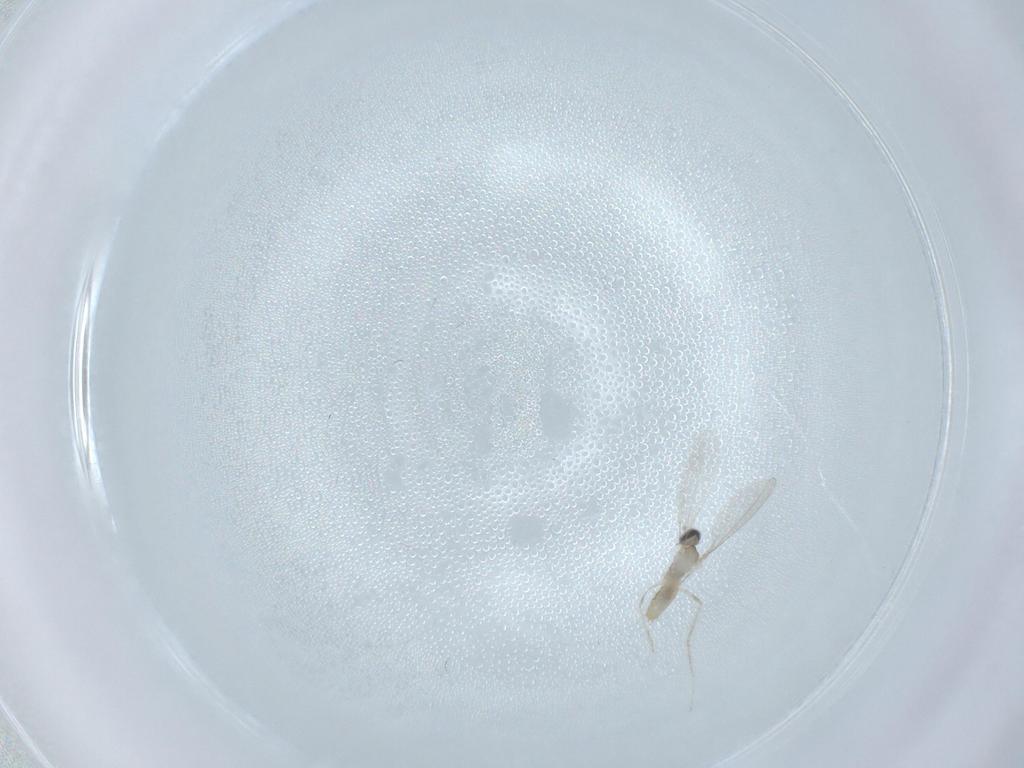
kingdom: Animalia
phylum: Arthropoda
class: Insecta
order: Diptera
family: Cecidomyiidae
